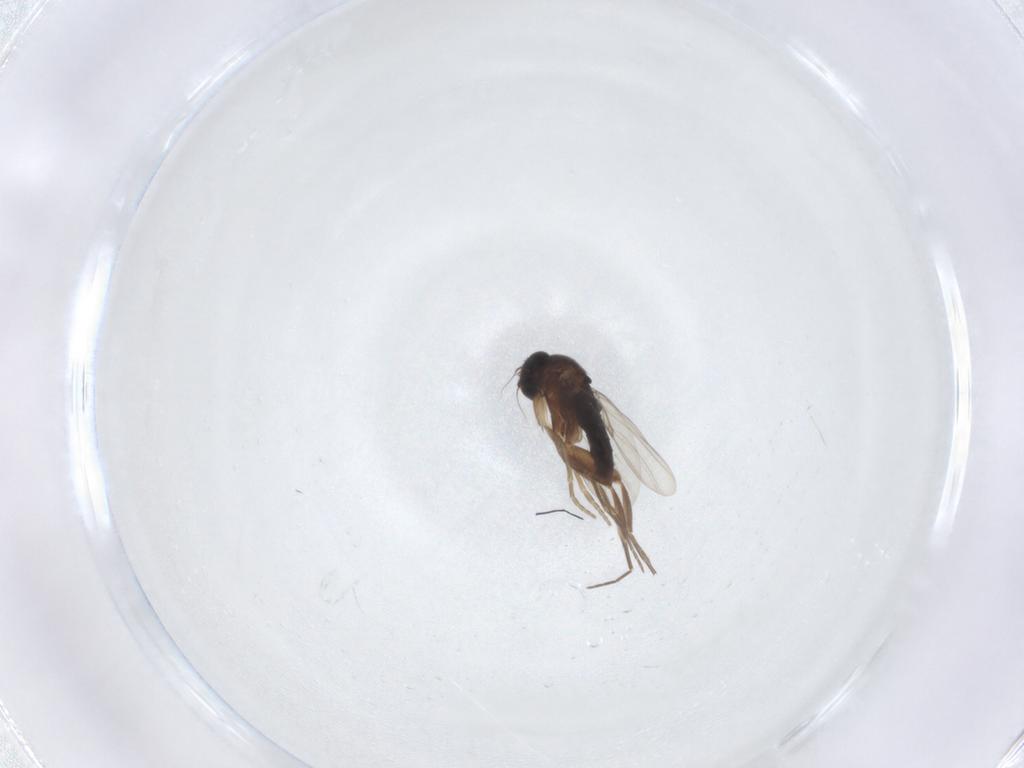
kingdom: Animalia
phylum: Arthropoda
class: Insecta
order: Diptera
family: Phoridae
